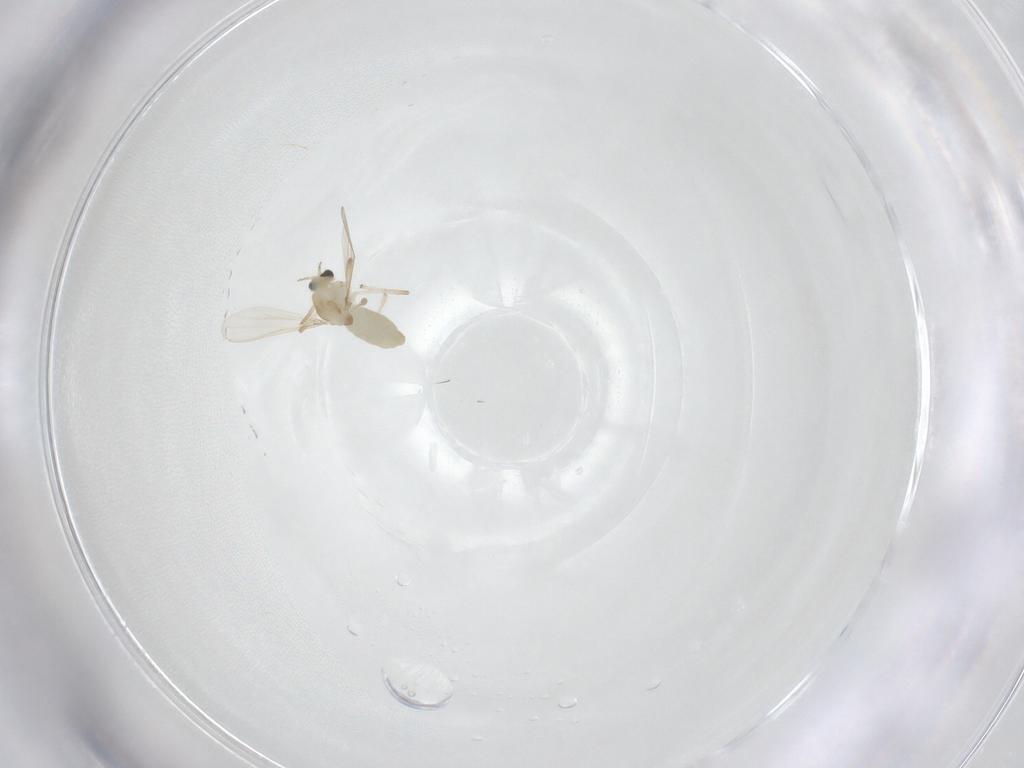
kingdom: Animalia
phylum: Arthropoda
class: Insecta
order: Diptera
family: Chironomidae
